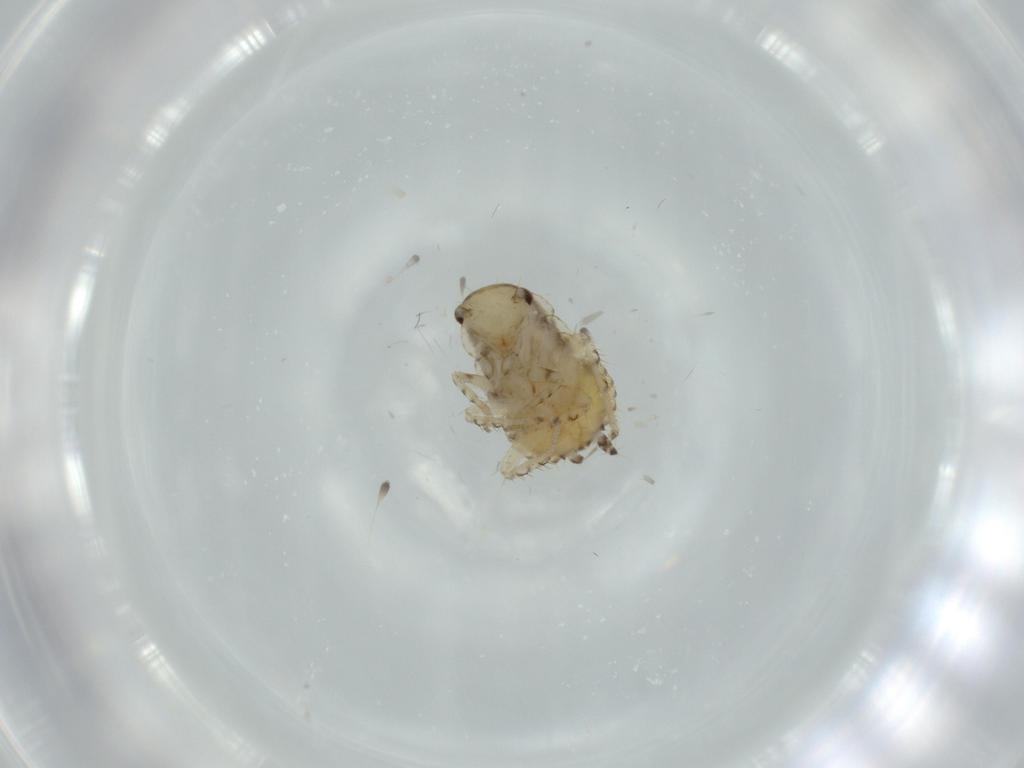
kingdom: Animalia
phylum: Arthropoda
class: Insecta
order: Blattodea
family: Ectobiidae
